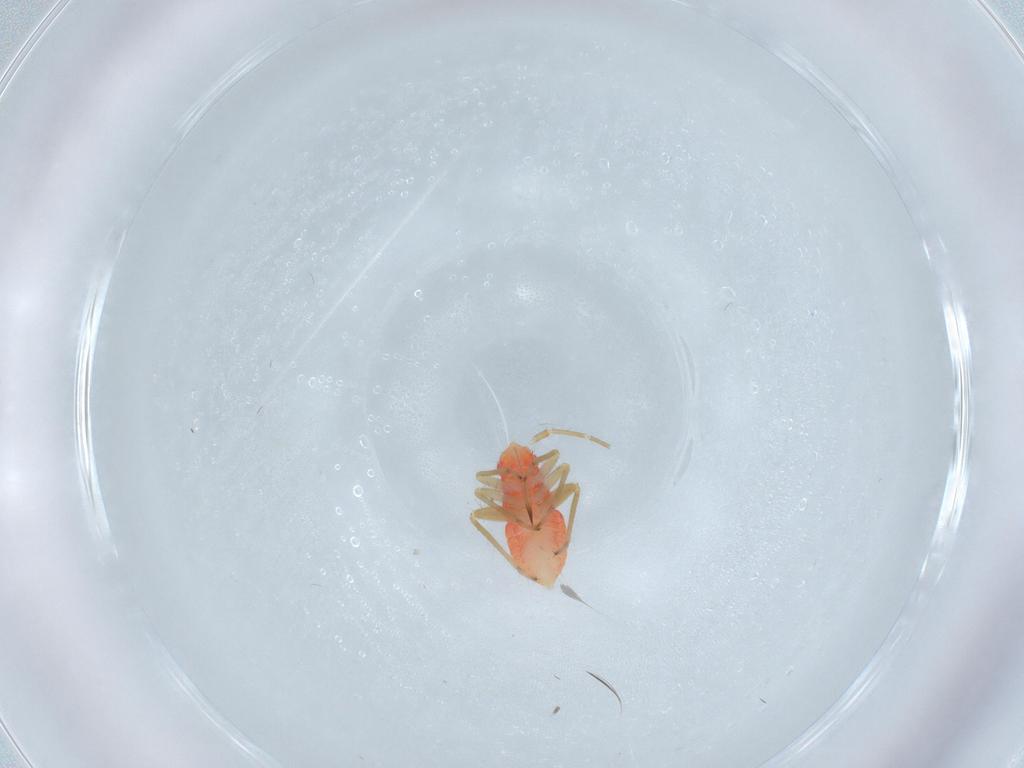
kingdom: Animalia
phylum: Arthropoda
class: Insecta
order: Hemiptera
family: Miridae
